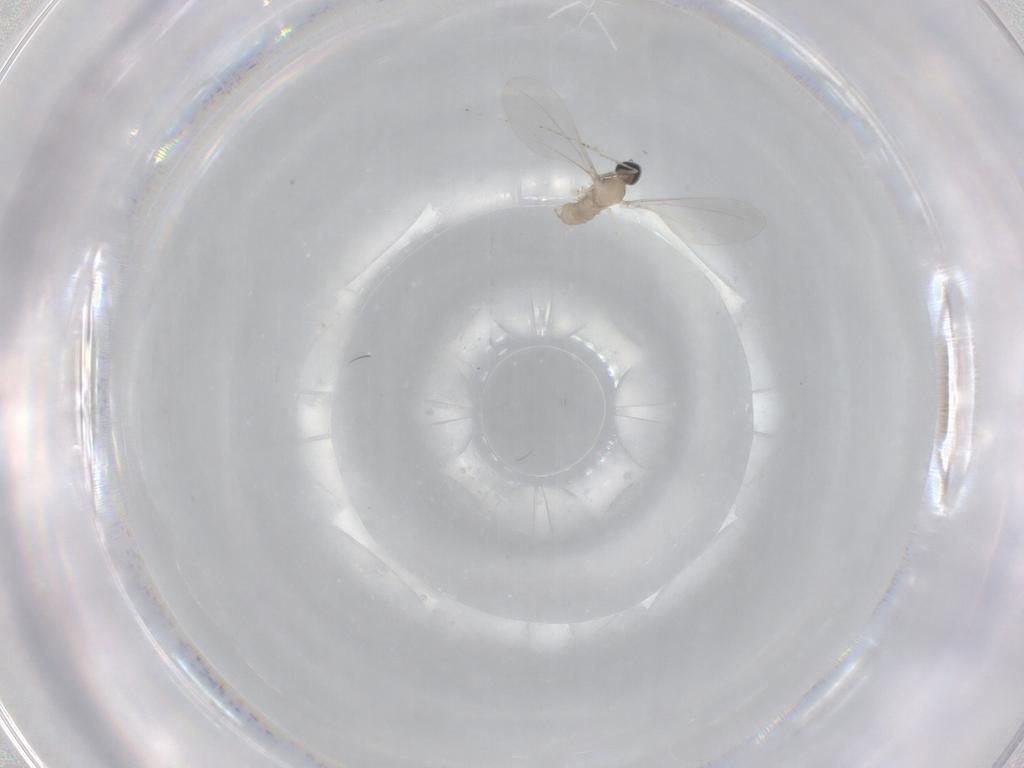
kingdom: Animalia
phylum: Arthropoda
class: Insecta
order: Diptera
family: Cecidomyiidae
